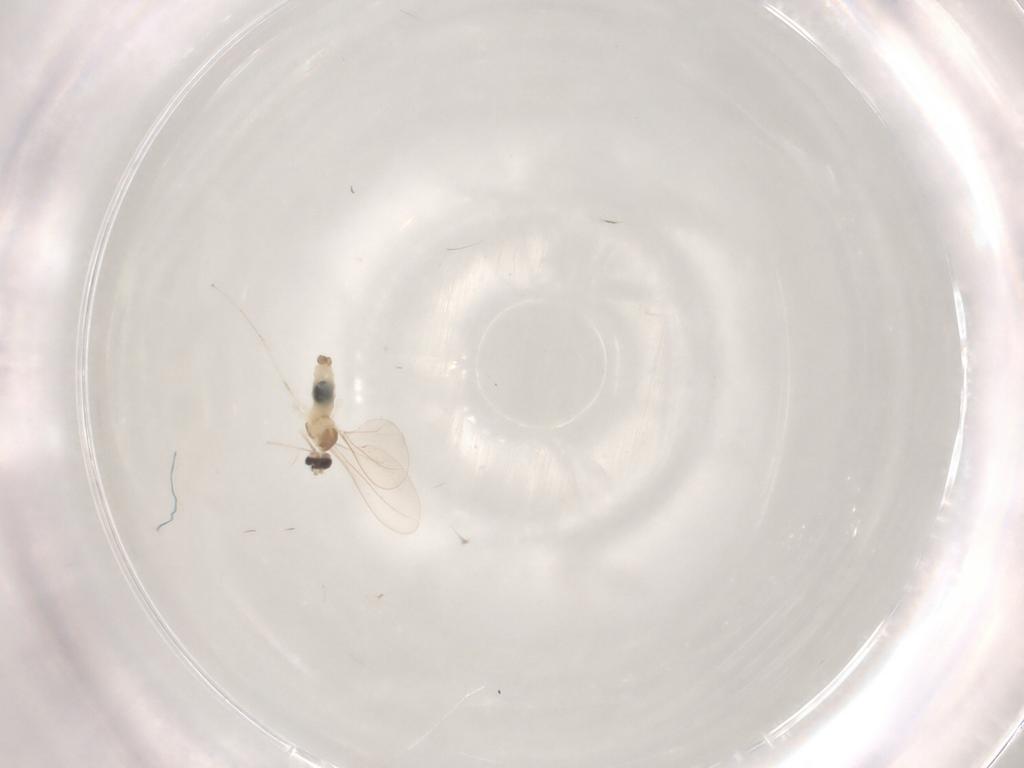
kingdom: Animalia
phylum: Arthropoda
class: Insecta
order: Diptera
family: Cecidomyiidae
